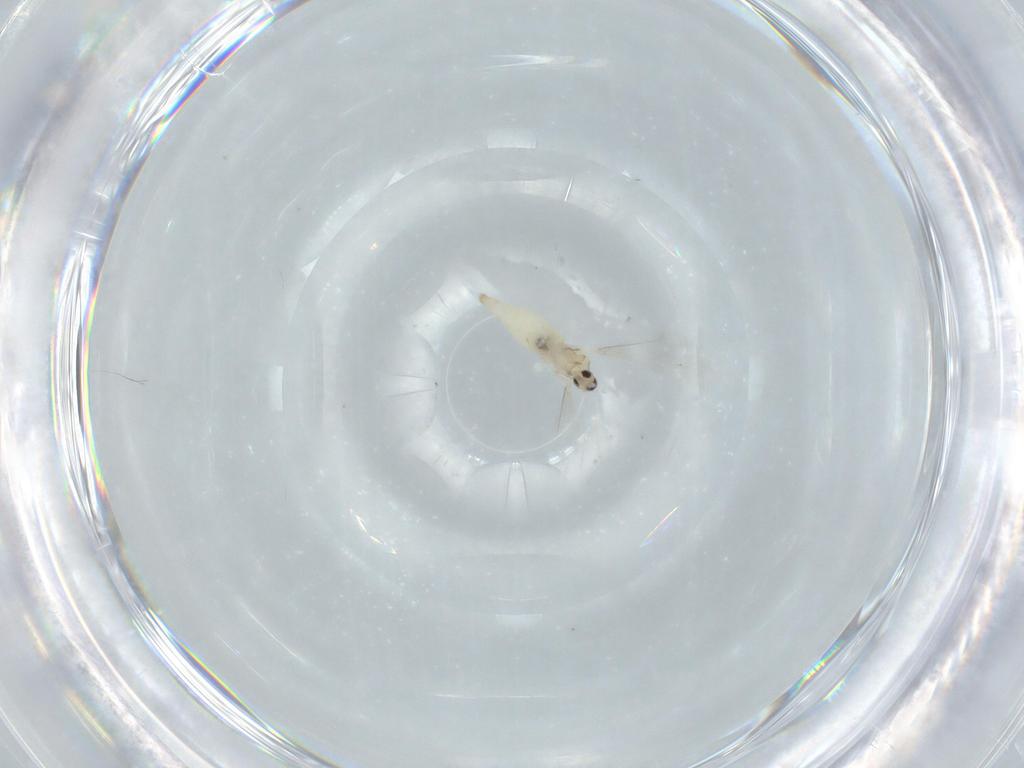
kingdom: Animalia
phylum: Arthropoda
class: Insecta
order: Diptera
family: Cecidomyiidae
